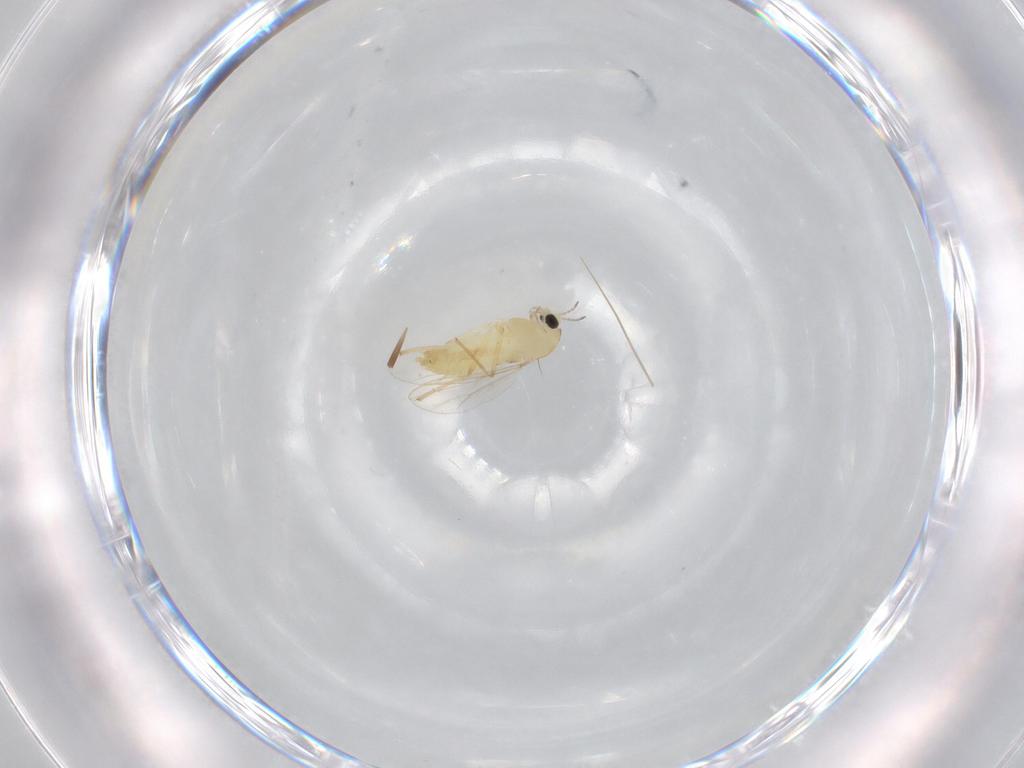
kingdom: Animalia
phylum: Arthropoda
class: Insecta
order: Diptera
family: Chironomidae
